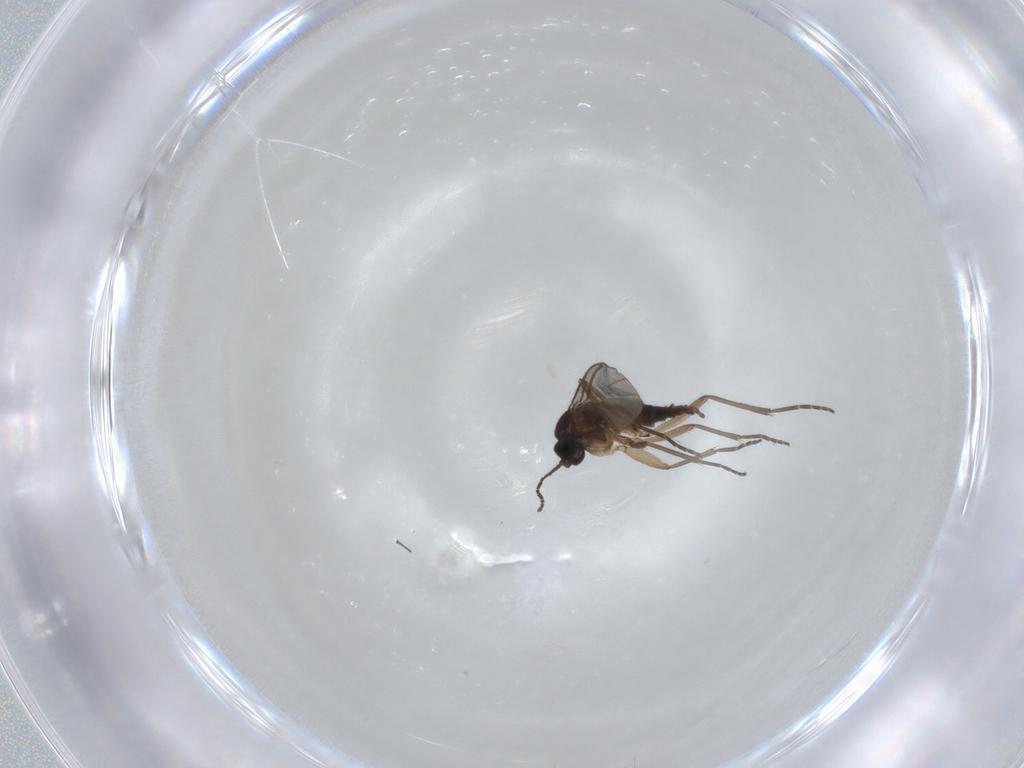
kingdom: Animalia
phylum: Arthropoda
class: Insecta
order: Diptera
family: Sciaridae
